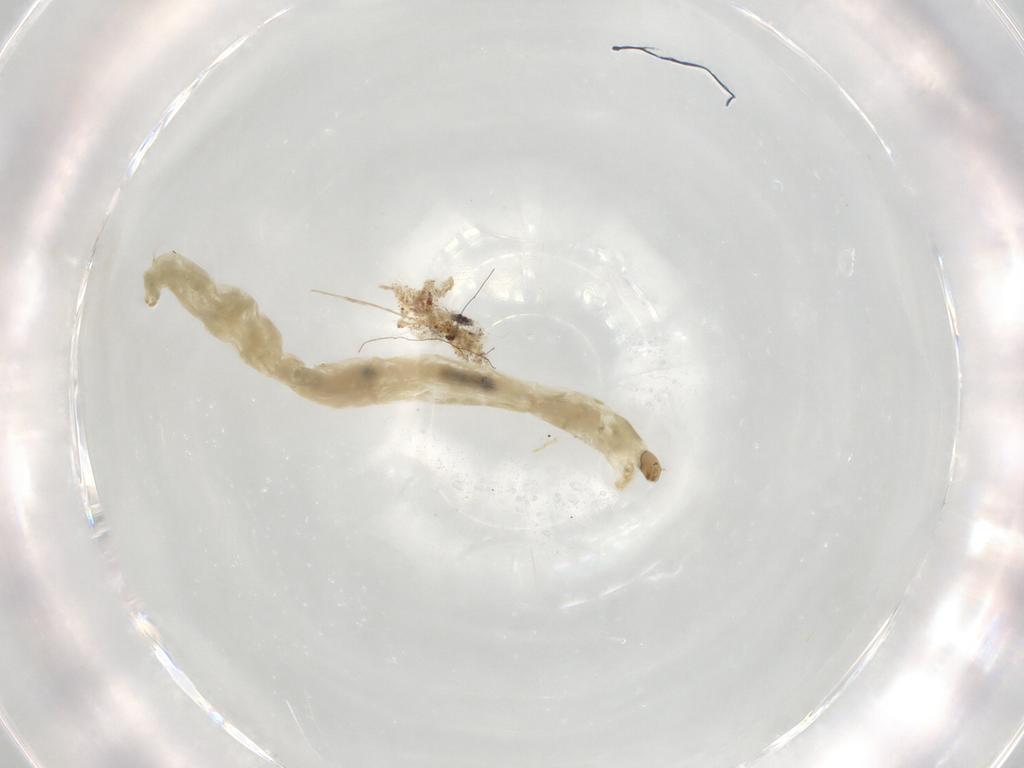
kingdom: Animalia
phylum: Arthropoda
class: Insecta
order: Diptera
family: Chironomidae
